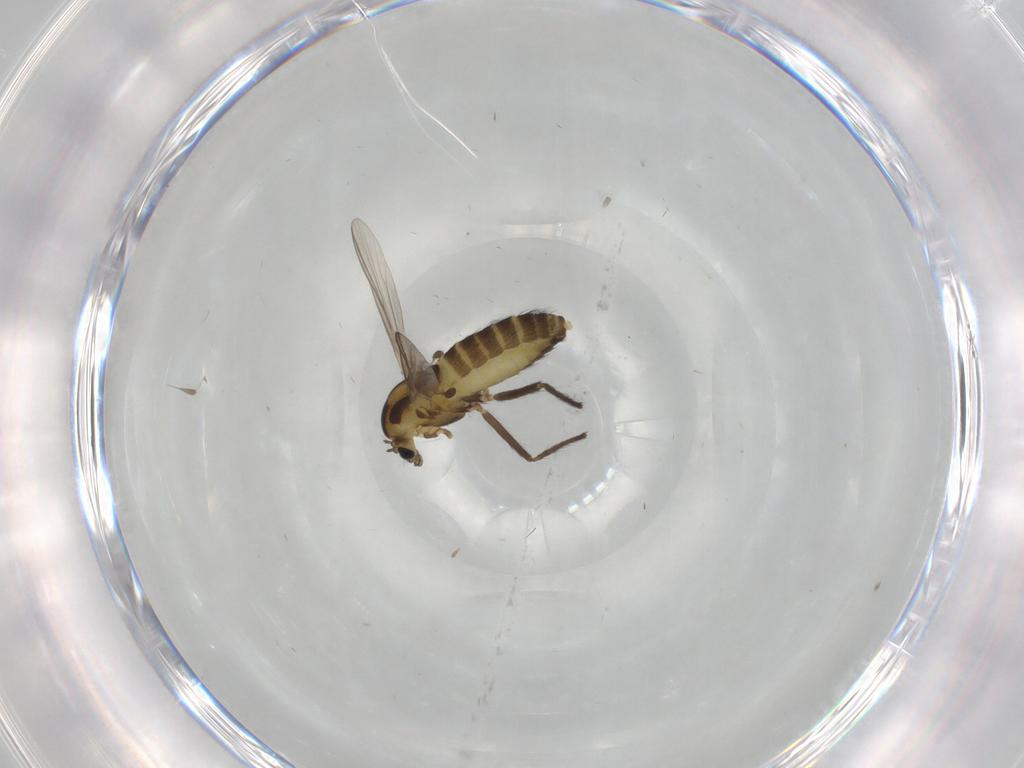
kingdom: Animalia
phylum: Arthropoda
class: Insecta
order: Diptera
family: Chironomidae
